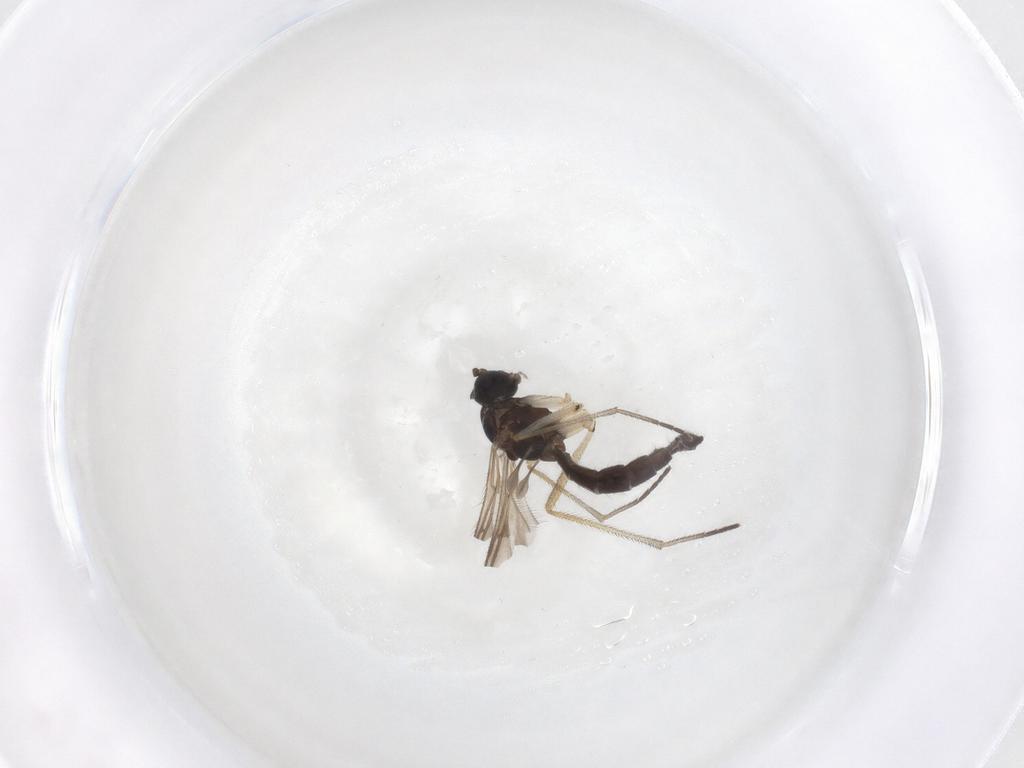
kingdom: Animalia
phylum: Arthropoda
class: Insecta
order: Diptera
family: Sciaridae
